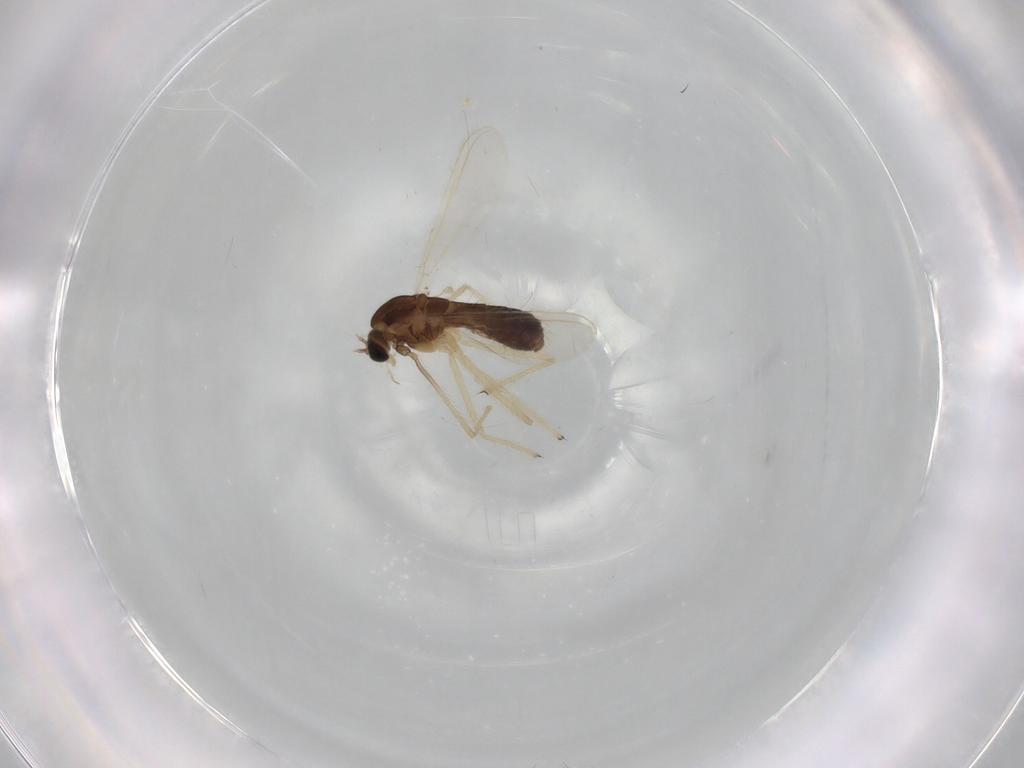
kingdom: Animalia
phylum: Arthropoda
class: Insecta
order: Diptera
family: Chironomidae
